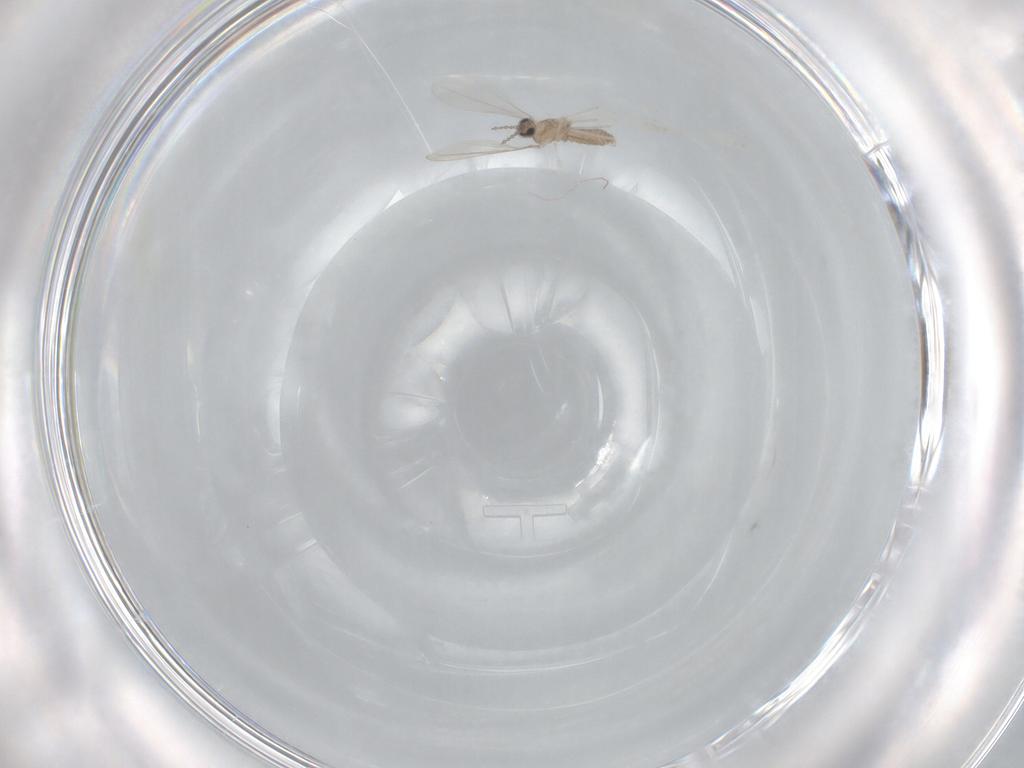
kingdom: Animalia
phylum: Arthropoda
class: Insecta
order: Diptera
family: Cecidomyiidae
